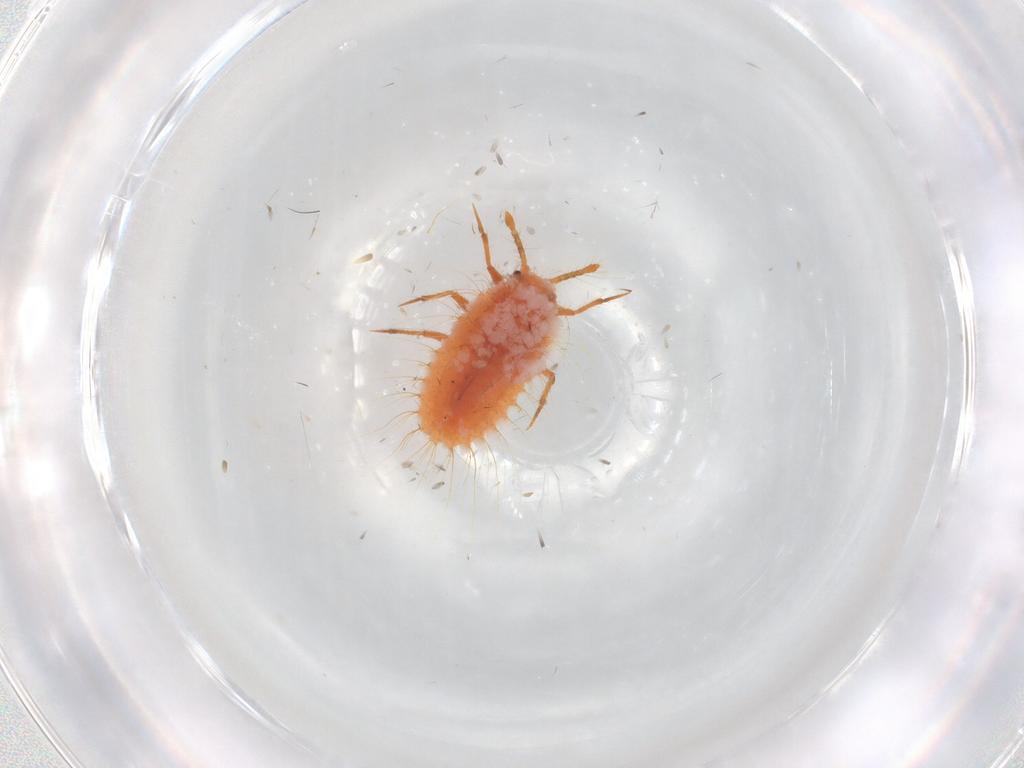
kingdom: Animalia
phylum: Arthropoda
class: Insecta
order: Hemiptera
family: Coccoidea_incertae_sedis
